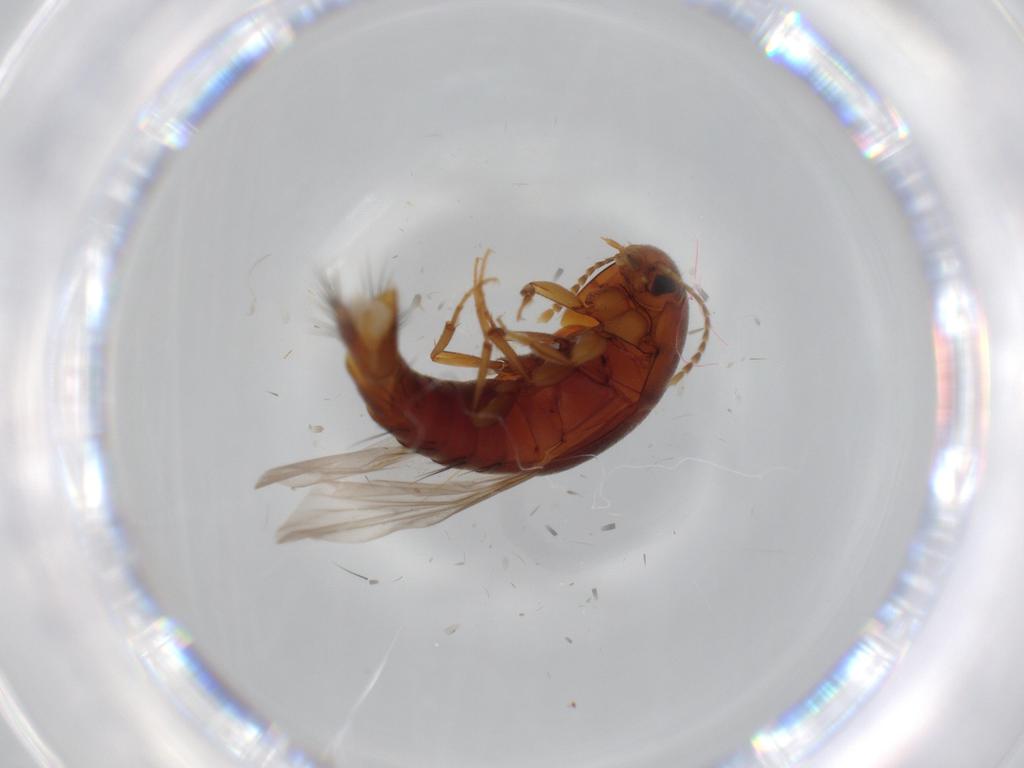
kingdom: Animalia
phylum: Arthropoda
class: Insecta
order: Coleoptera
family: Staphylinidae
